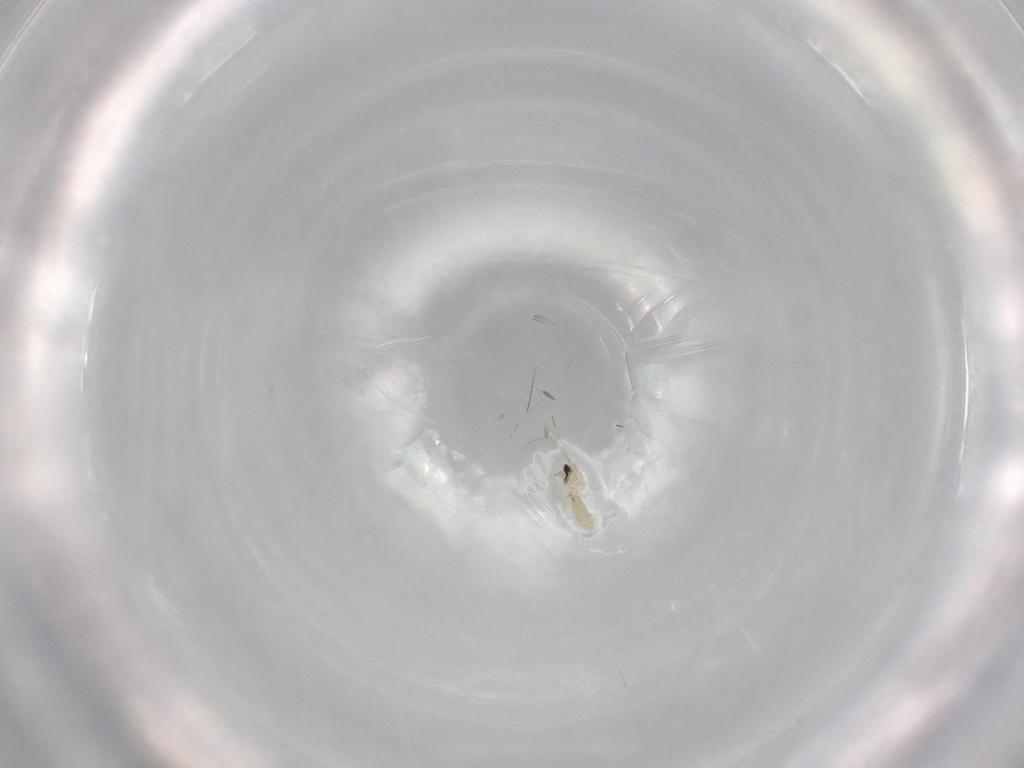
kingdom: Animalia
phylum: Arthropoda
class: Insecta
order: Diptera
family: Cecidomyiidae
